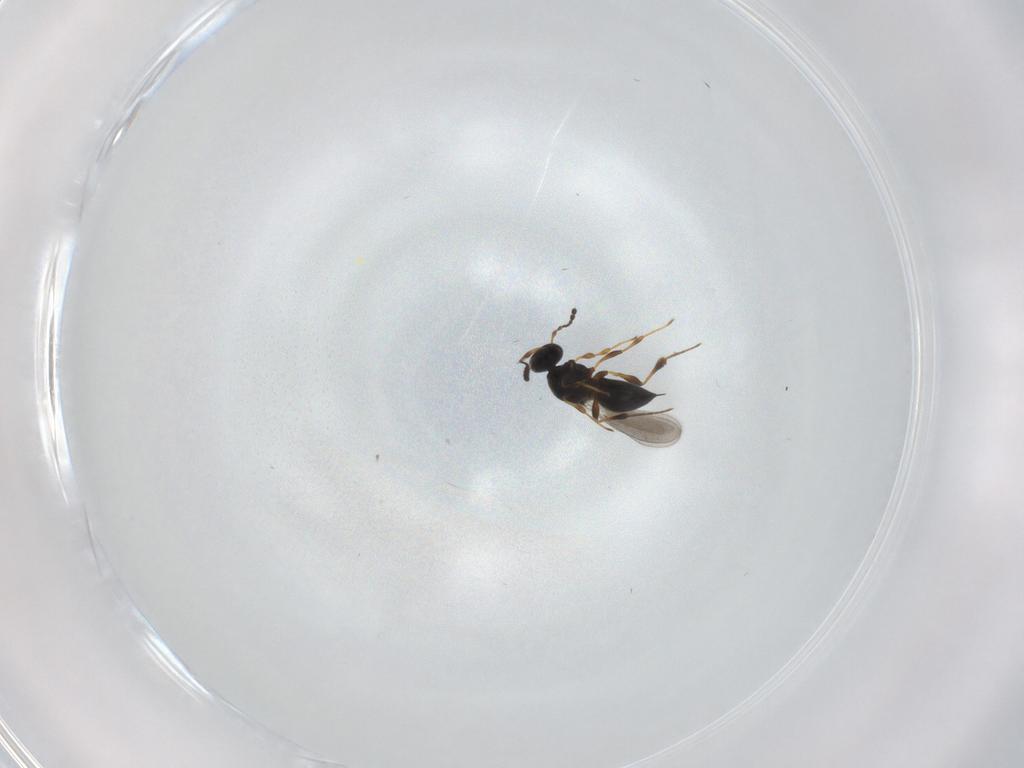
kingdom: Animalia
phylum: Arthropoda
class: Insecta
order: Hymenoptera
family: Platygastridae
